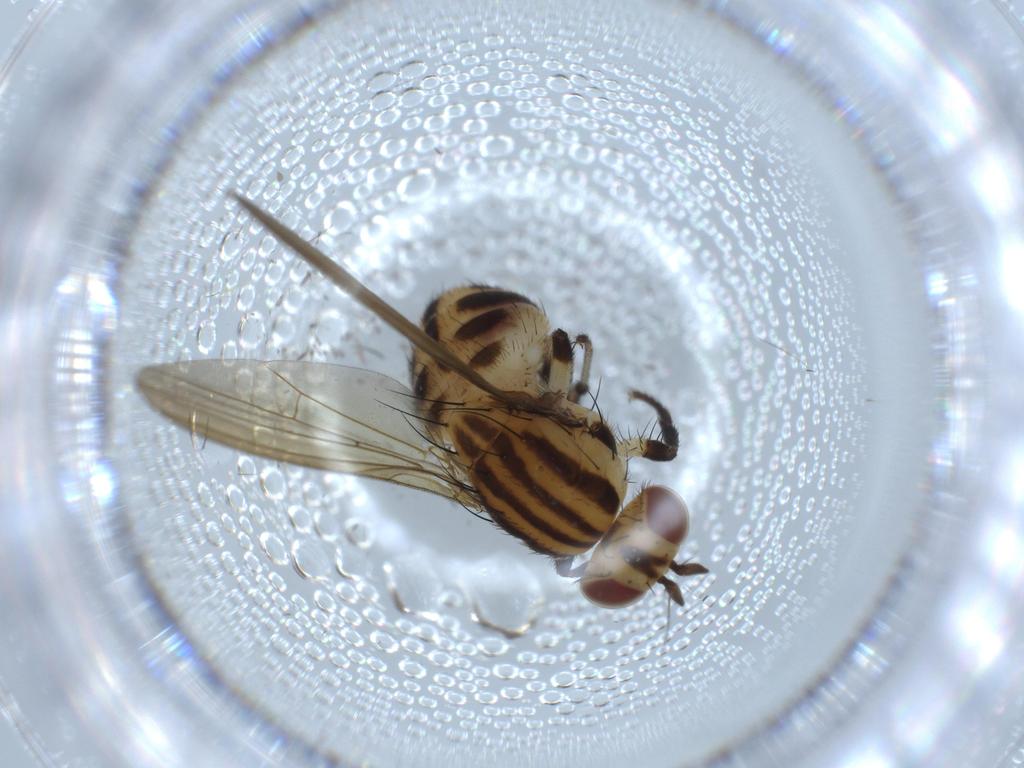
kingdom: Animalia
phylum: Arthropoda
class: Insecta
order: Diptera
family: Lauxaniidae
